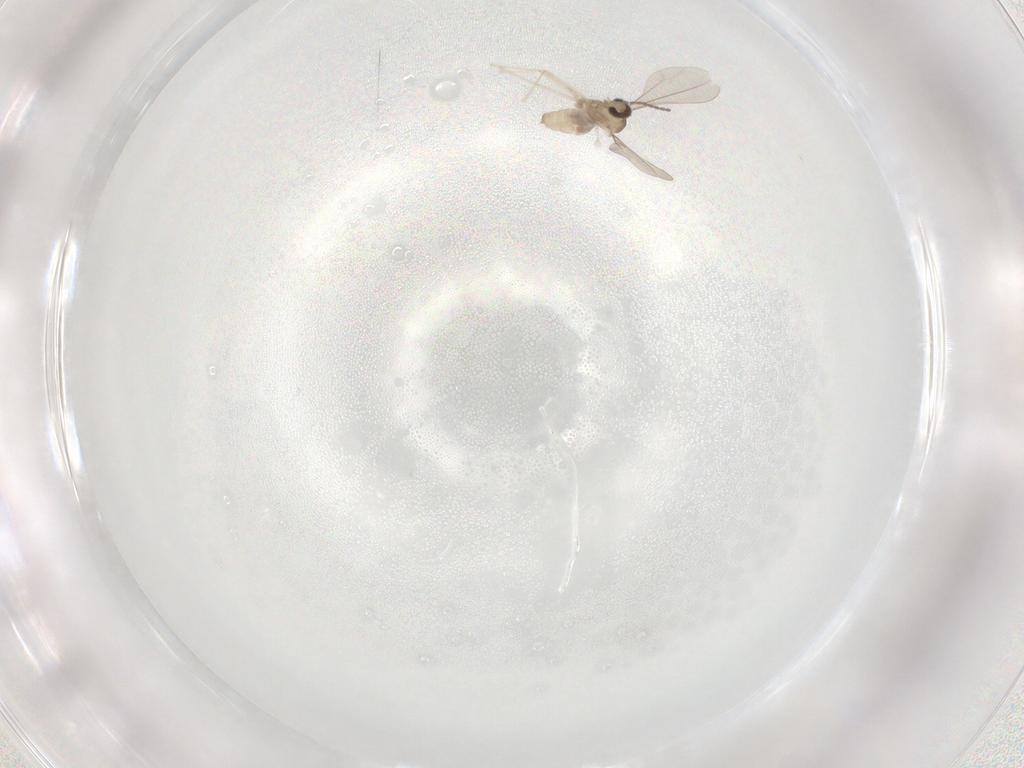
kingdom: Animalia
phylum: Arthropoda
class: Insecta
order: Diptera
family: Cecidomyiidae
